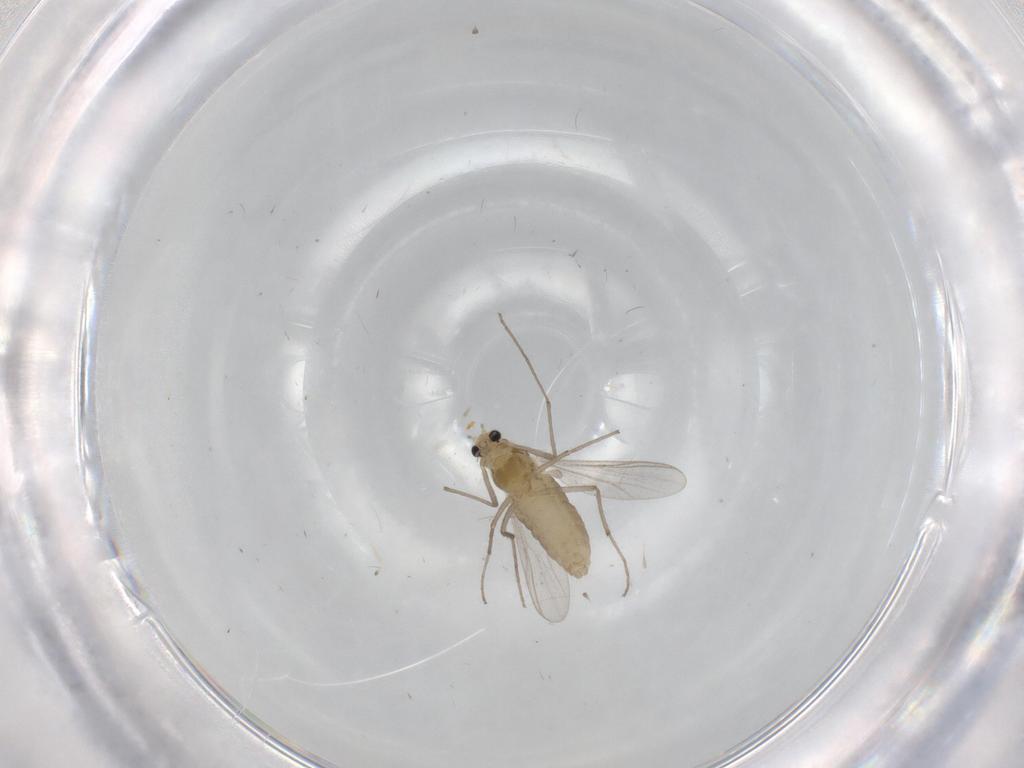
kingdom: Animalia
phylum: Arthropoda
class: Insecta
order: Diptera
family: Chironomidae
